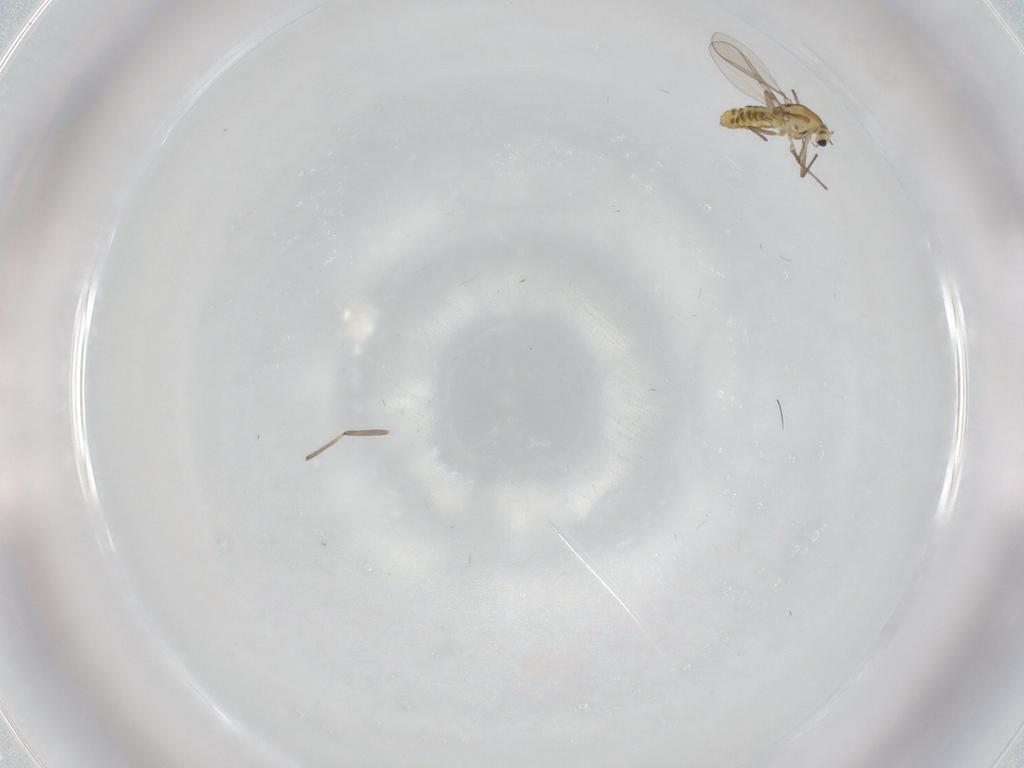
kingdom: Animalia
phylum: Arthropoda
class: Insecta
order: Diptera
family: Chironomidae
